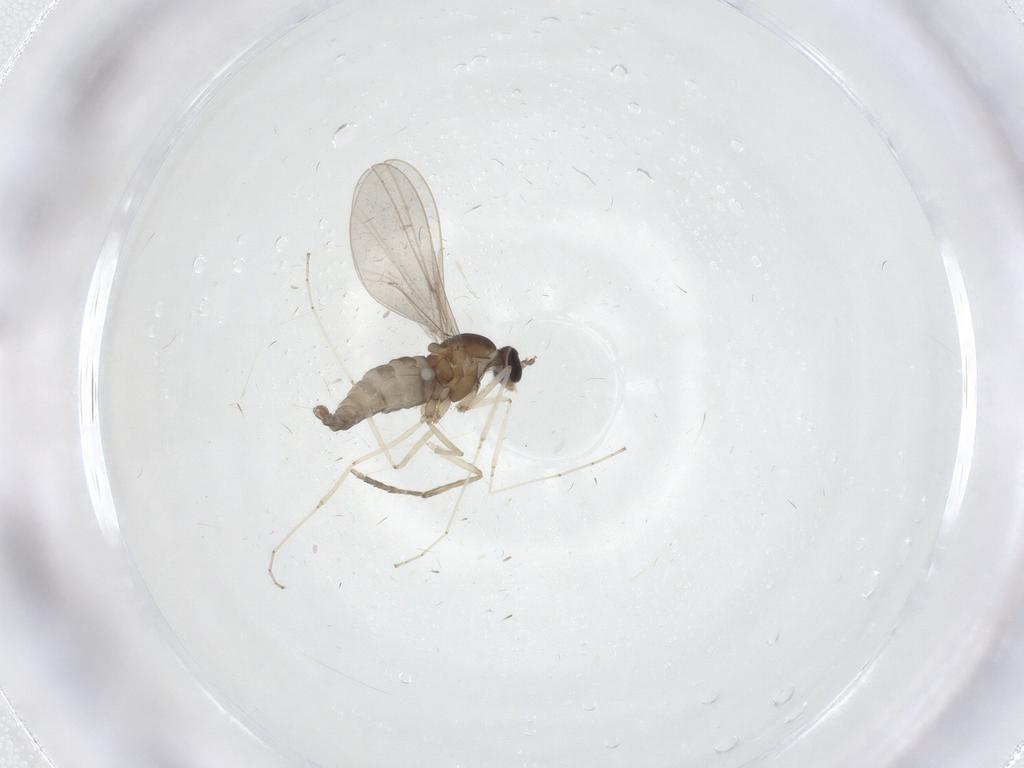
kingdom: Animalia
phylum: Arthropoda
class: Insecta
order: Diptera
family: Cecidomyiidae
